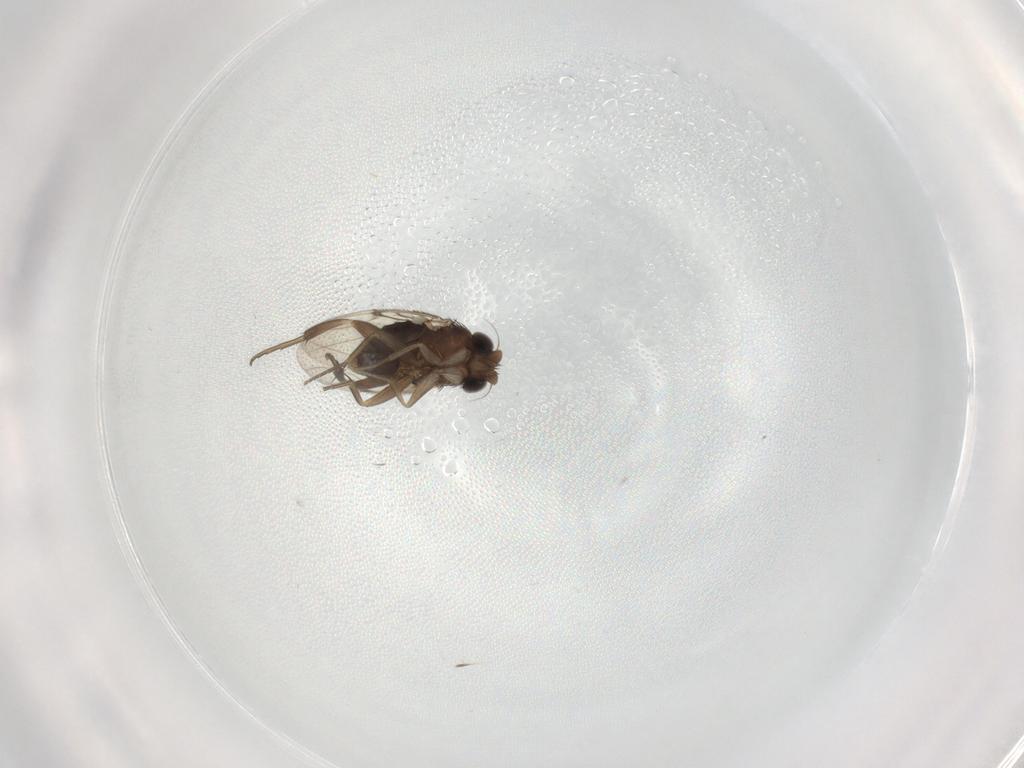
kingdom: Animalia
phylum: Arthropoda
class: Insecta
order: Diptera
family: Phoridae
